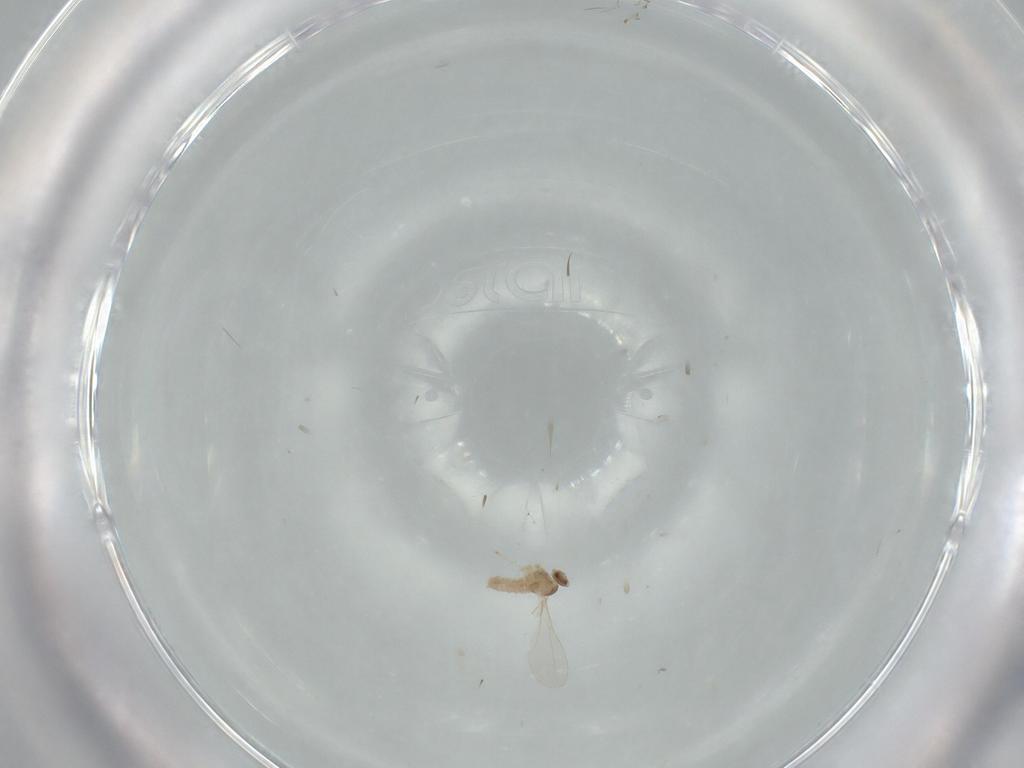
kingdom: Animalia
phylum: Arthropoda
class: Insecta
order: Diptera
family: Cecidomyiidae
